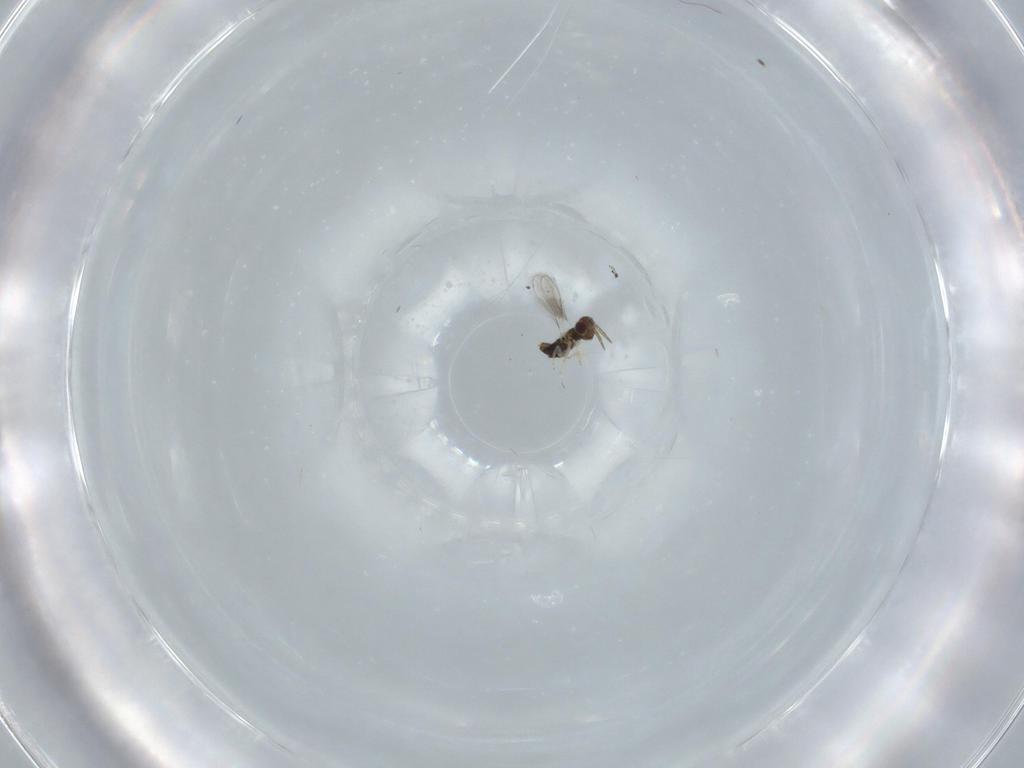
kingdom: Animalia
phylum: Arthropoda
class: Insecta
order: Hymenoptera
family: Aphelinidae
